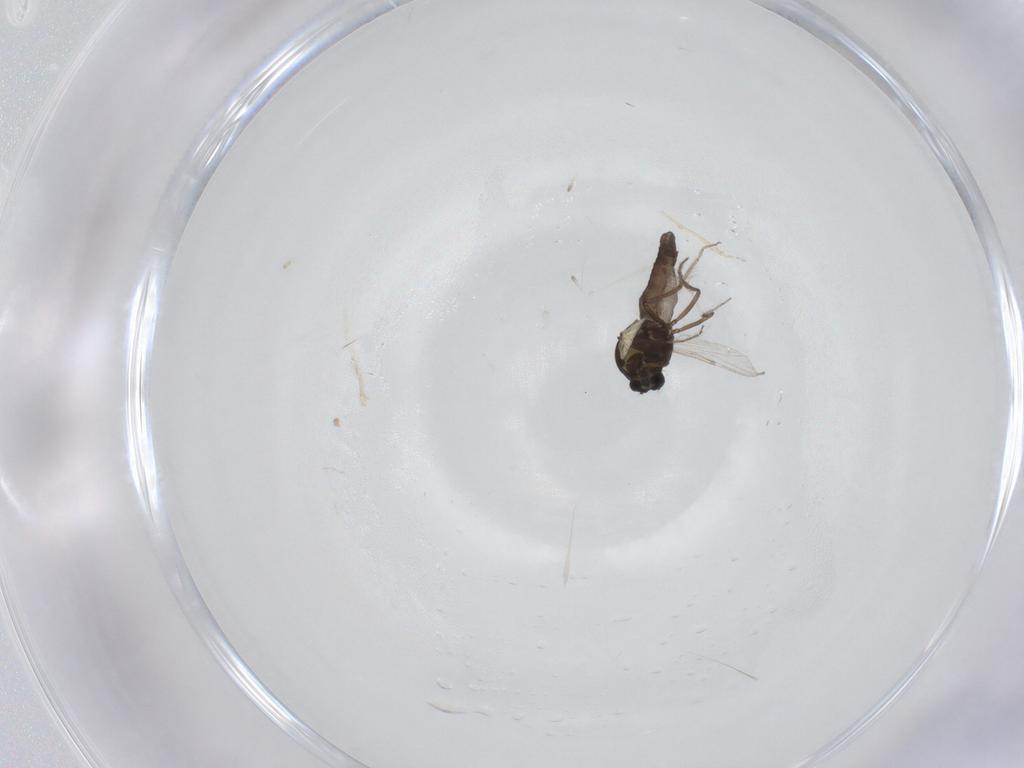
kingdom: Animalia
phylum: Arthropoda
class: Insecta
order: Diptera
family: Ceratopogonidae
